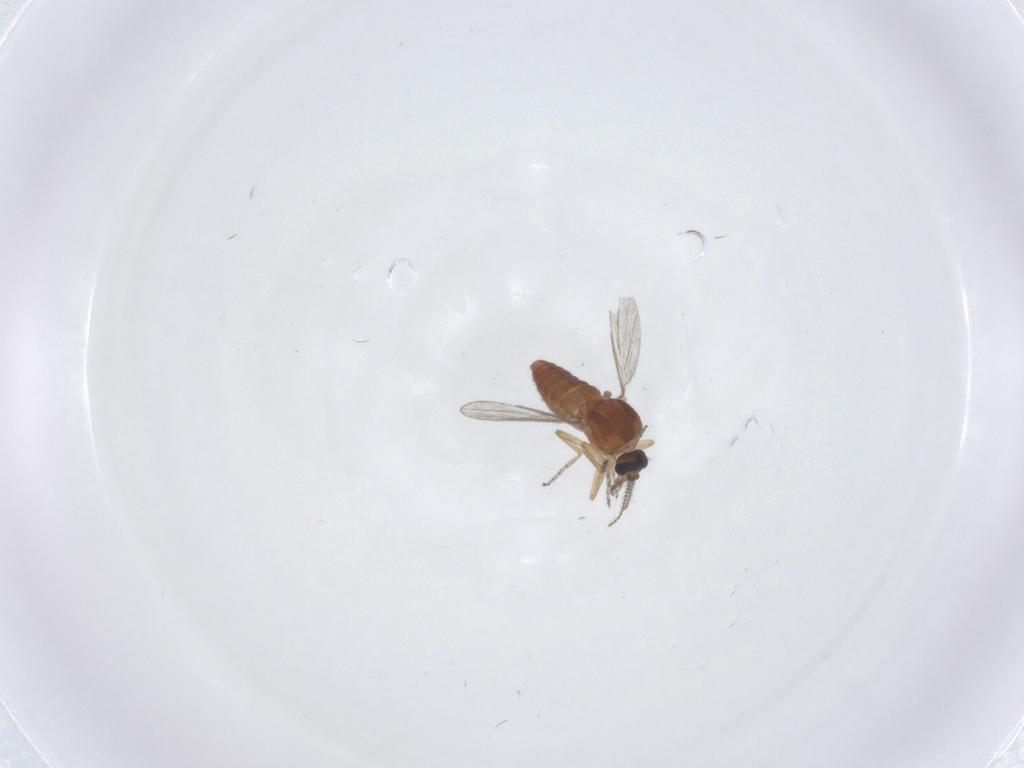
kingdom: Animalia
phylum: Arthropoda
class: Insecta
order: Diptera
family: Ceratopogonidae
